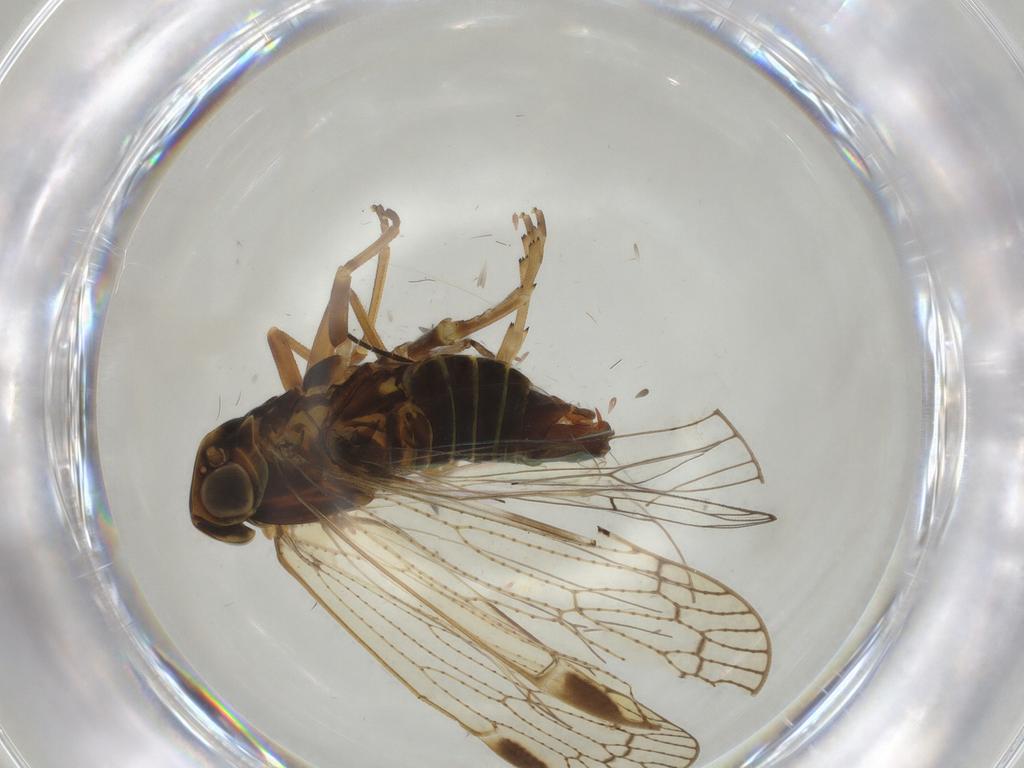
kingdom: Animalia
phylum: Arthropoda
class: Insecta
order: Hemiptera
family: Cixiidae
